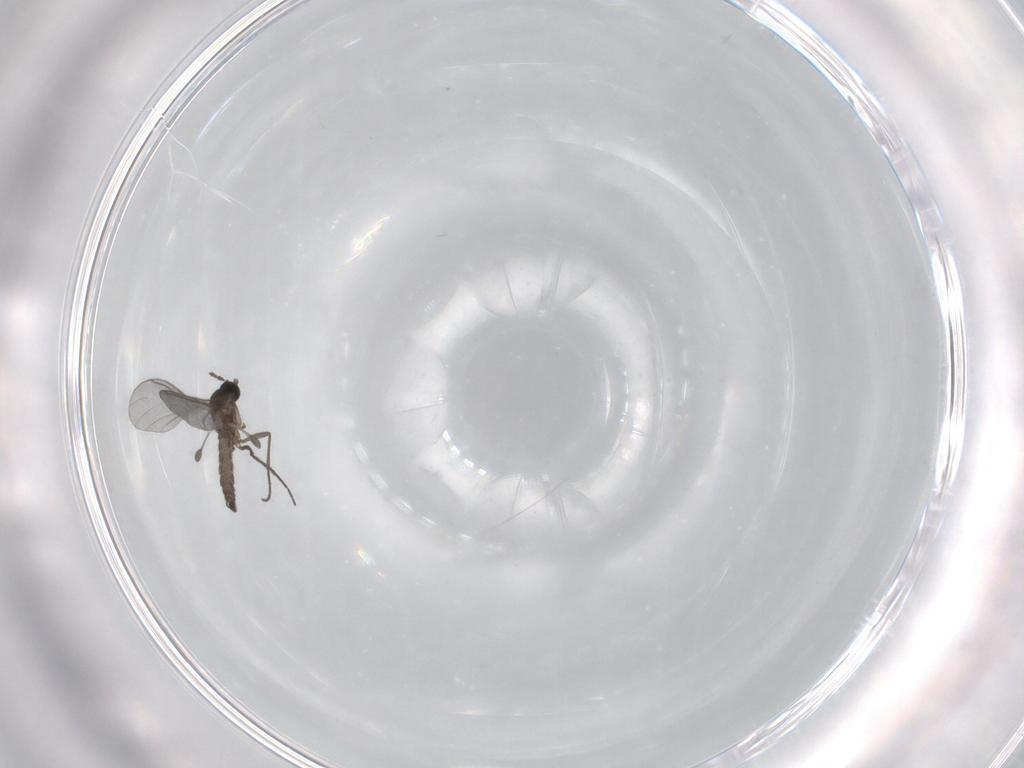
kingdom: Animalia
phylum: Arthropoda
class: Insecta
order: Diptera
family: Sciaridae
